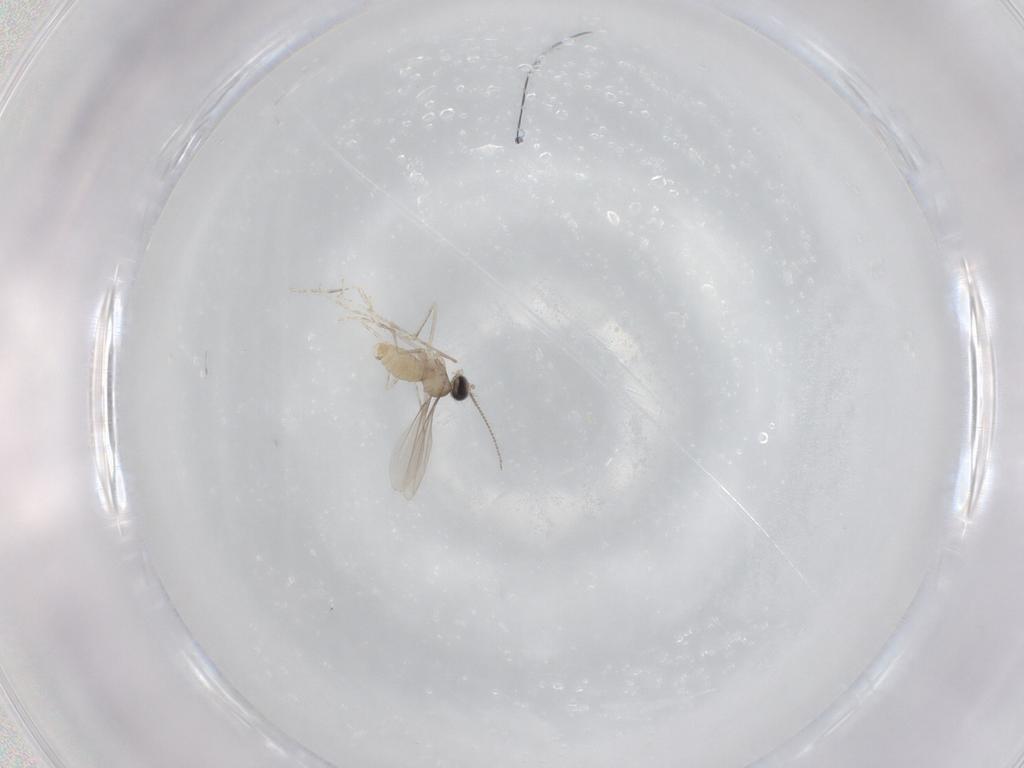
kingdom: Animalia
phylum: Arthropoda
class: Insecta
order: Diptera
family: Cecidomyiidae
